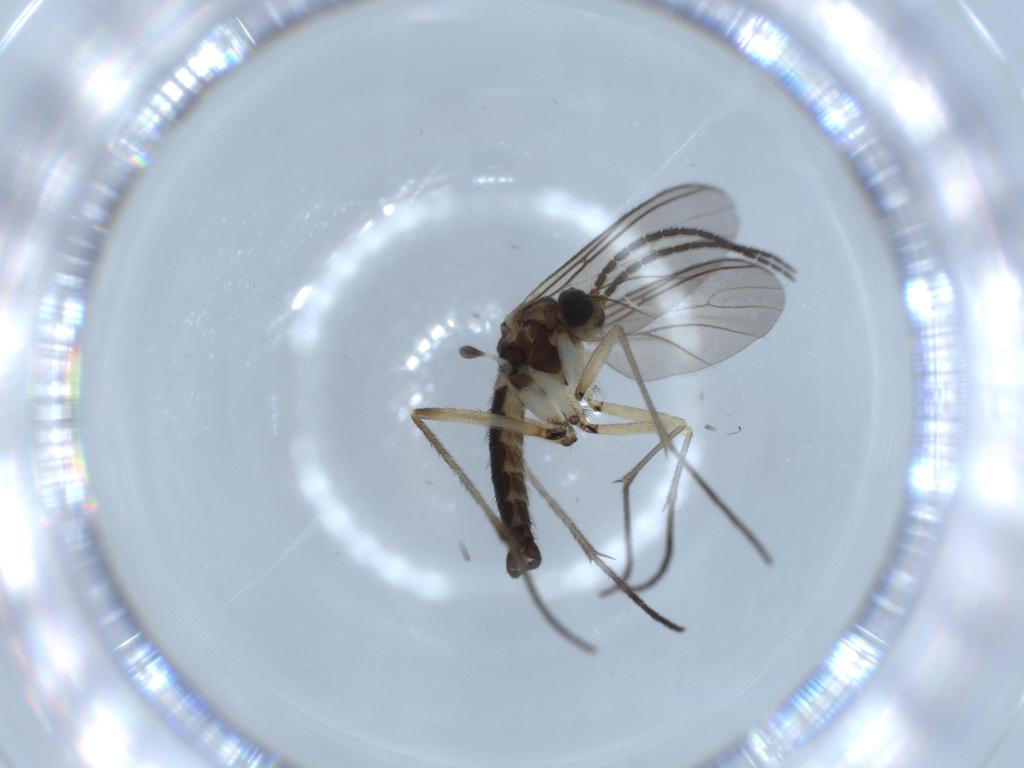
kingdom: Animalia
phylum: Arthropoda
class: Insecta
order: Diptera
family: Sciaridae
